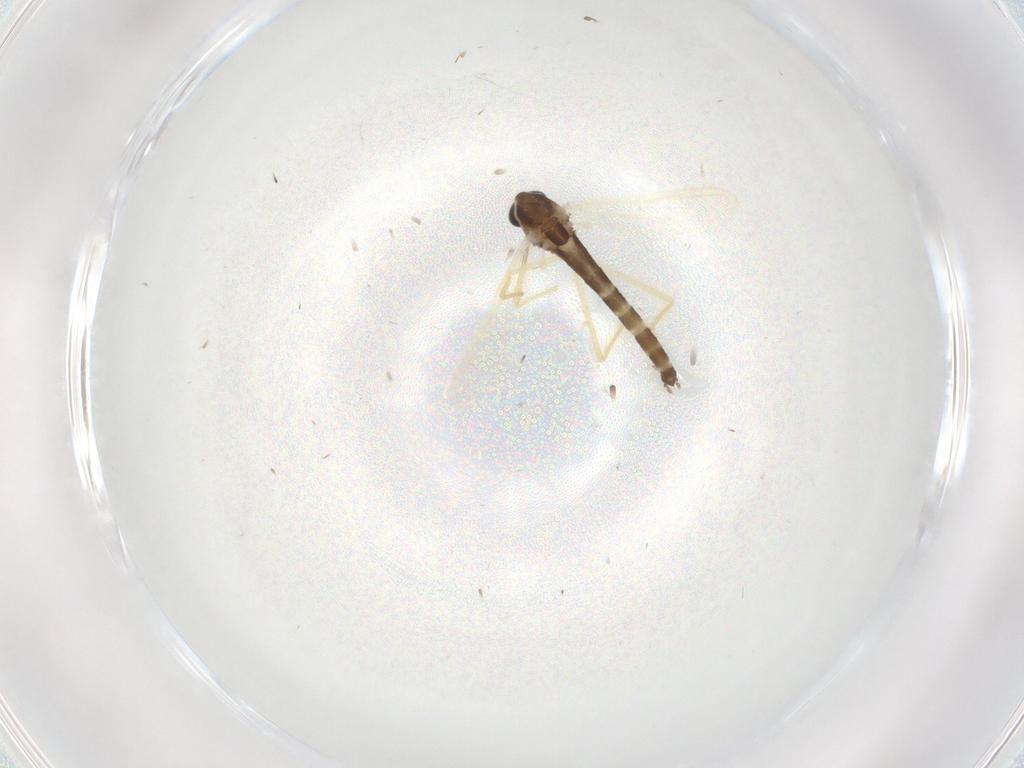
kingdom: Animalia
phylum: Arthropoda
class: Insecta
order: Diptera
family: Chironomidae
